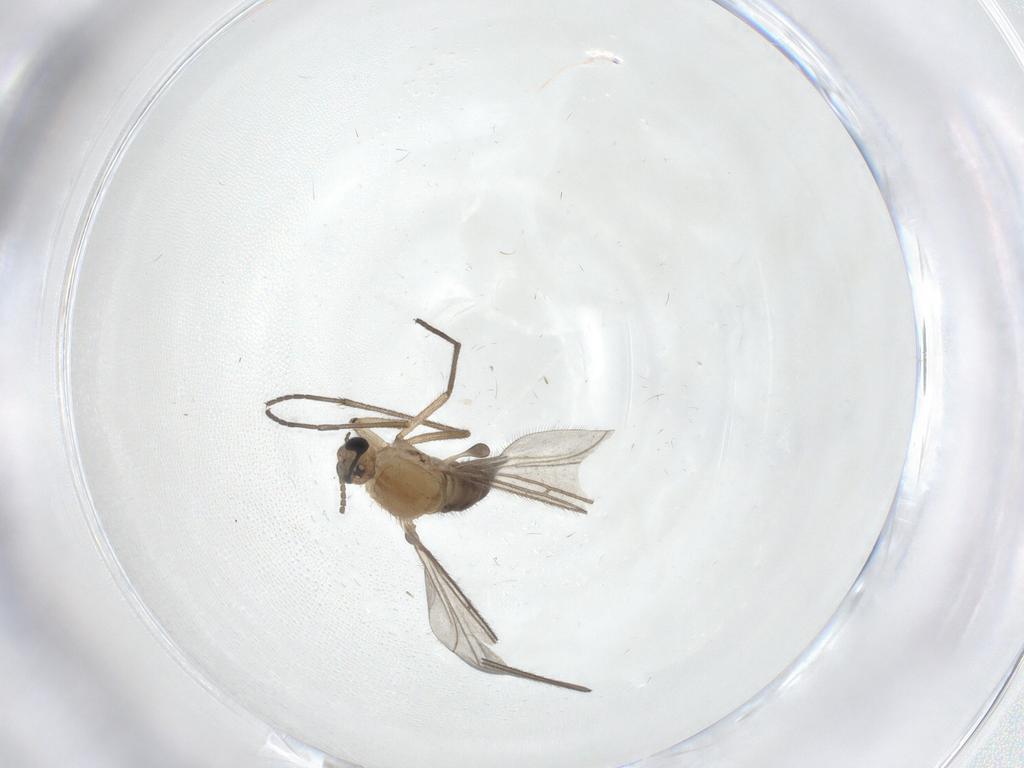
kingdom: Animalia
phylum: Arthropoda
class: Insecta
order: Diptera
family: Sciaridae
